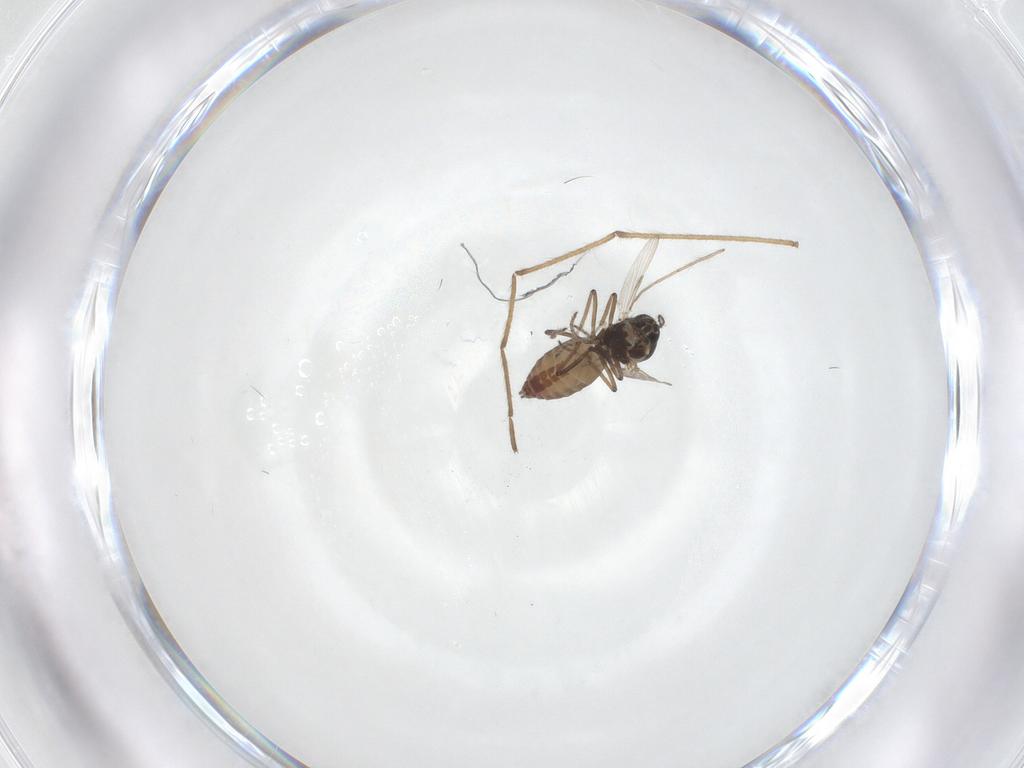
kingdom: Animalia
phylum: Arthropoda
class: Insecta
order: Diptera
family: Ceratopogonidae
